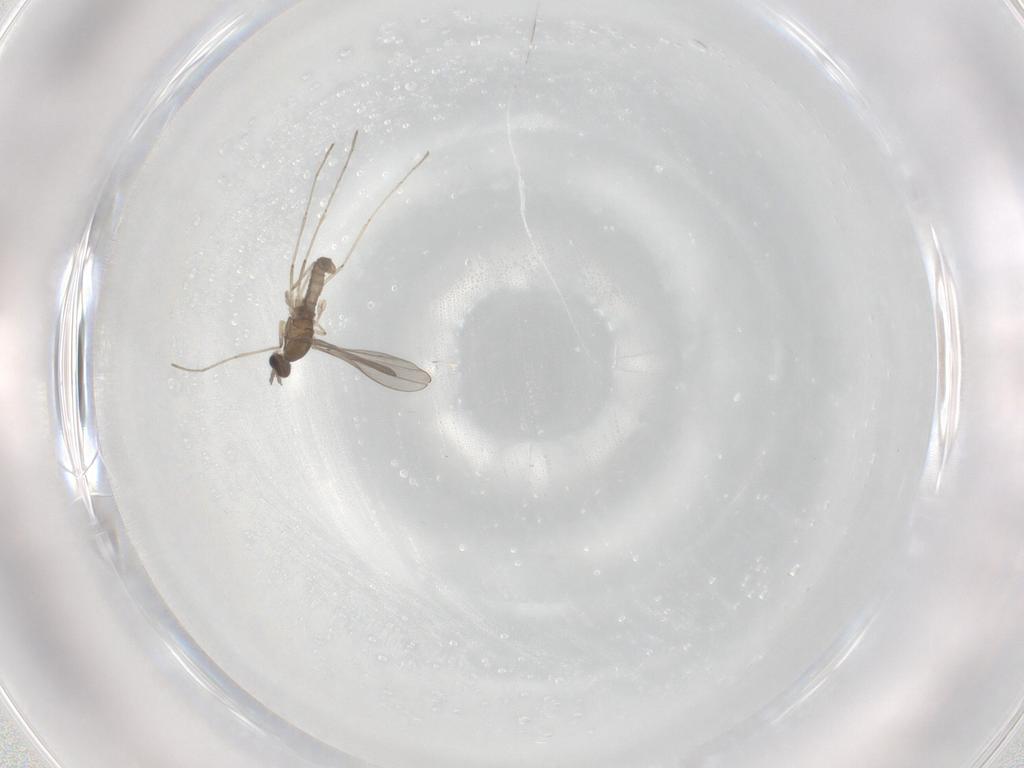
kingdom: Animalia
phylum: Arthropoda
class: Insecta
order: Diptera
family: Cecidomyiidae
